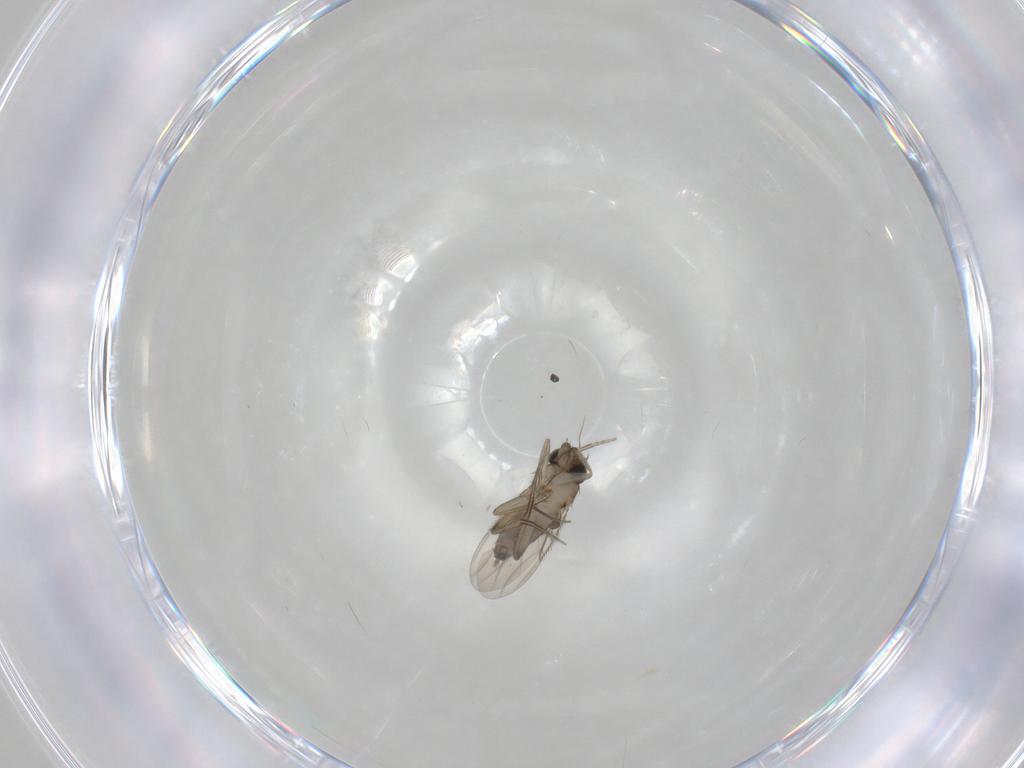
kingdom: Animalia
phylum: Arthropoda
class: Insecta
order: Diptera
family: Phoridae
